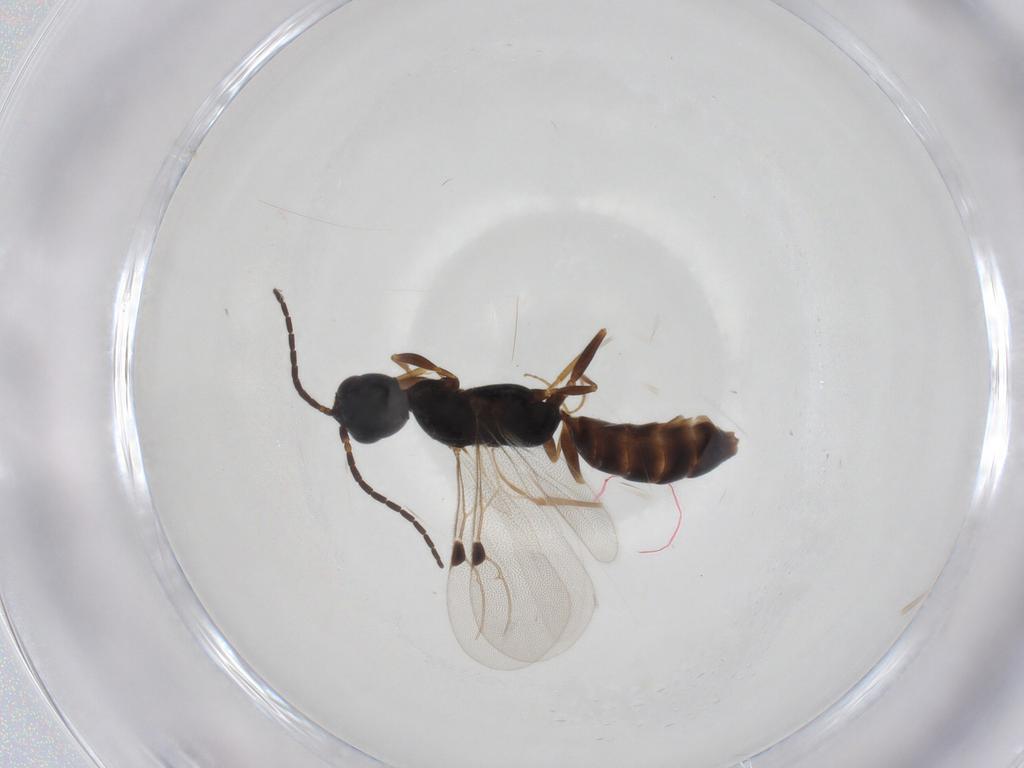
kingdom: Animalia
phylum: Arthropoda
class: Insecta
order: Hymenoptera
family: Bethylidae
